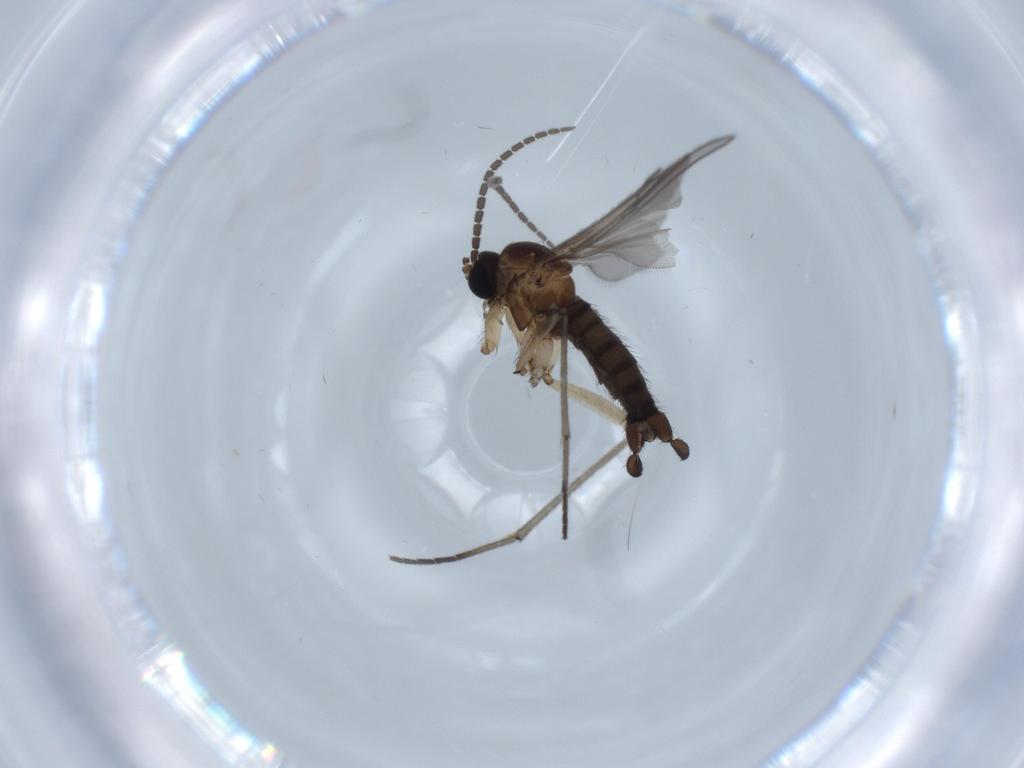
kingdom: Animalia
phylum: Arthropoda
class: Insecta
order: Diptera
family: Sciaridae
